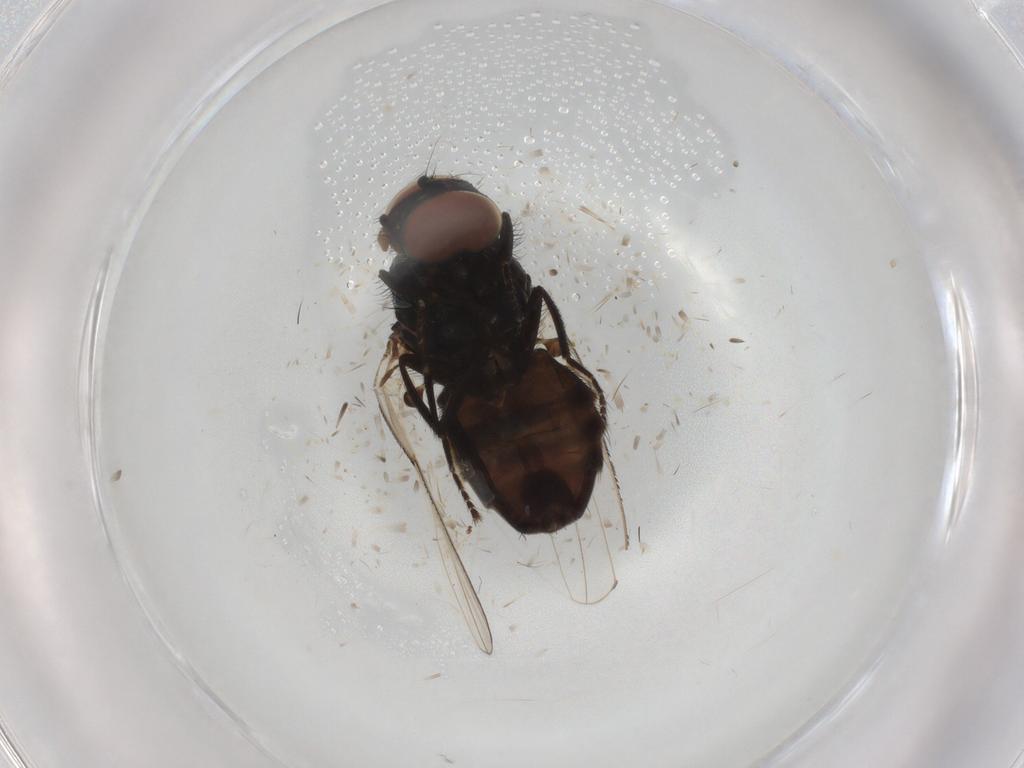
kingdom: Animalia
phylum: Arthropoda
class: Insecta
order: Diptera
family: Milichiidae
